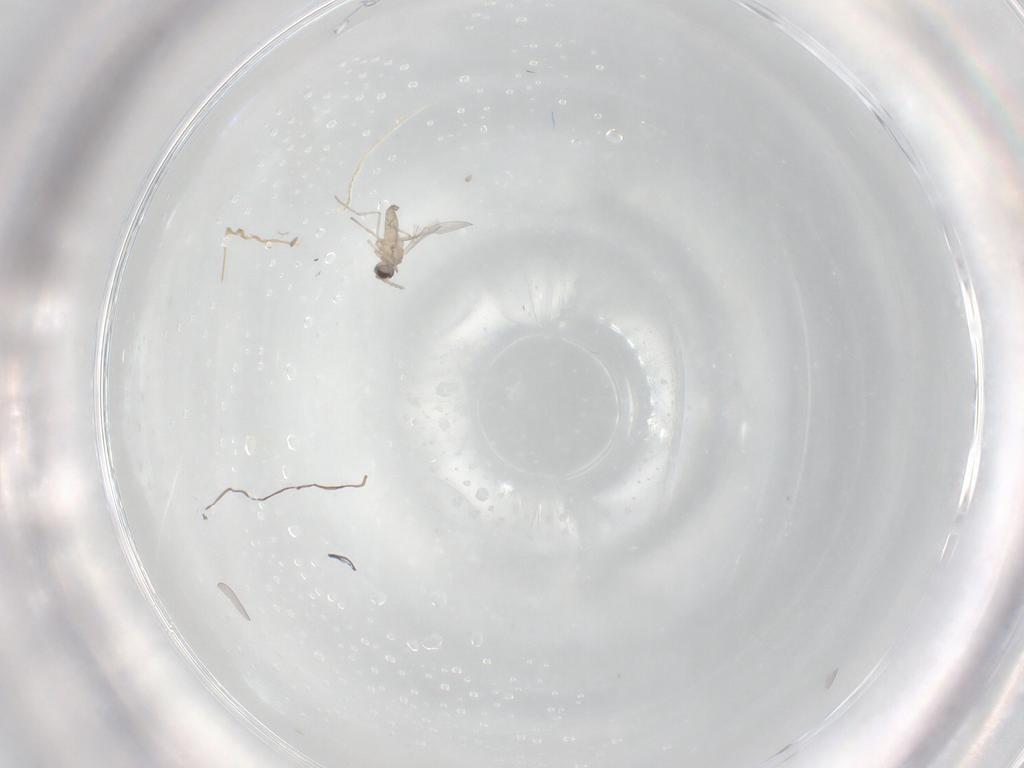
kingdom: Animalia
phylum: Arthropoda
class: Insecta
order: Diptera
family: Cecidomyiidae
